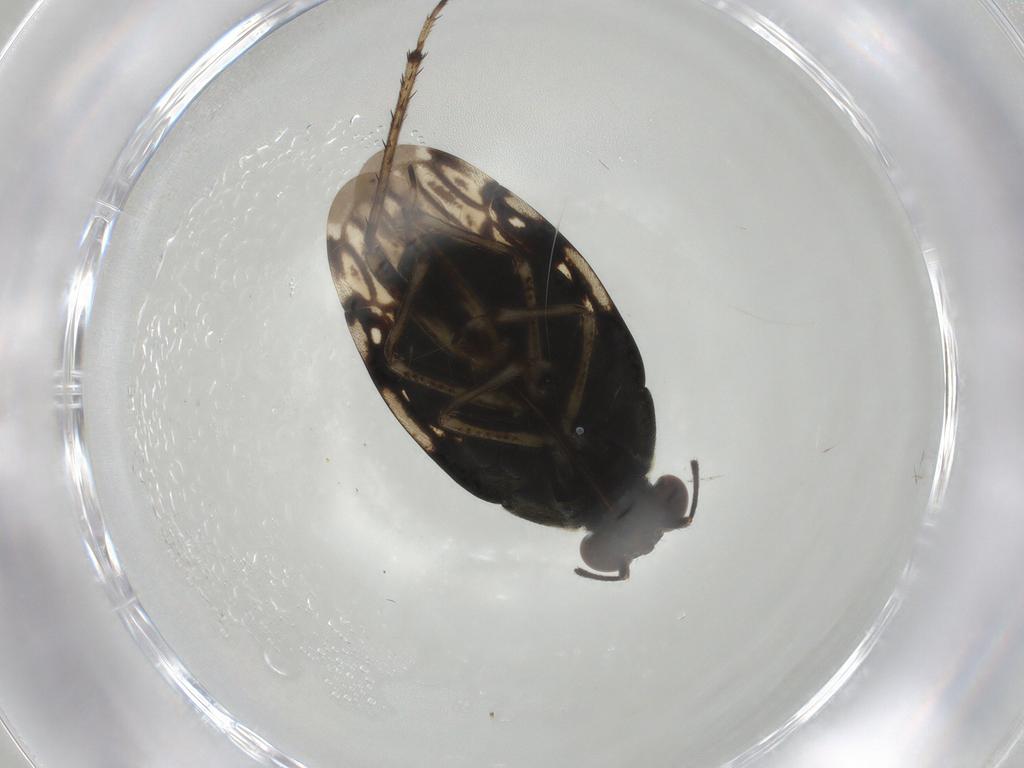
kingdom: Animalia
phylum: Arthropoda
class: Insecta
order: Hemiptera
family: Saldidae
